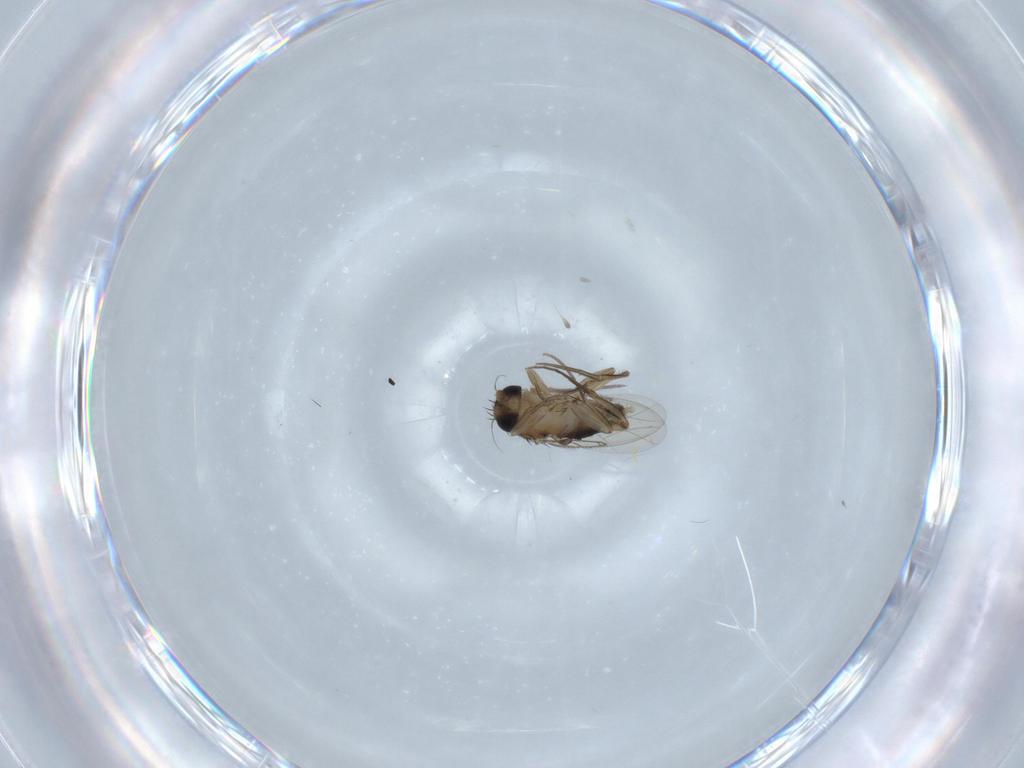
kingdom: Animalia
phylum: Arthropoda
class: Insecta
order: Diptera
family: Phoridae
